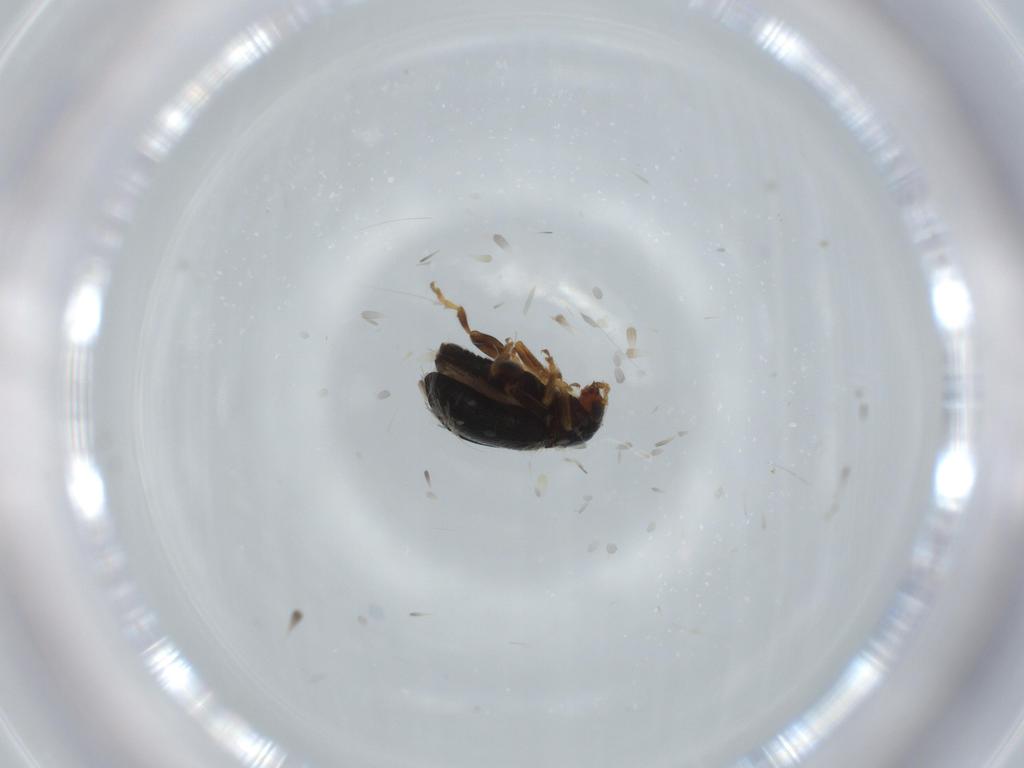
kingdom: Animalia
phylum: Arthropoda
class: Insecta
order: Coleoptera
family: Chrysomelidae
